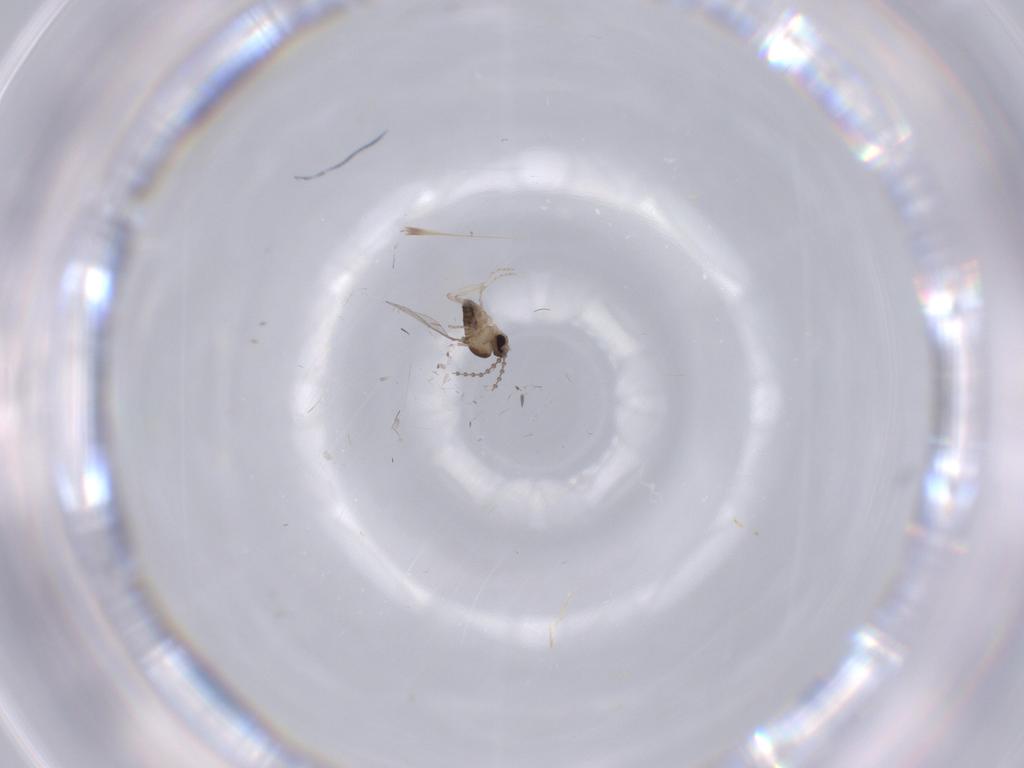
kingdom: Animalia
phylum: Arthropoda
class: Insecta
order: Diptera
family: Cecidomyiidae
